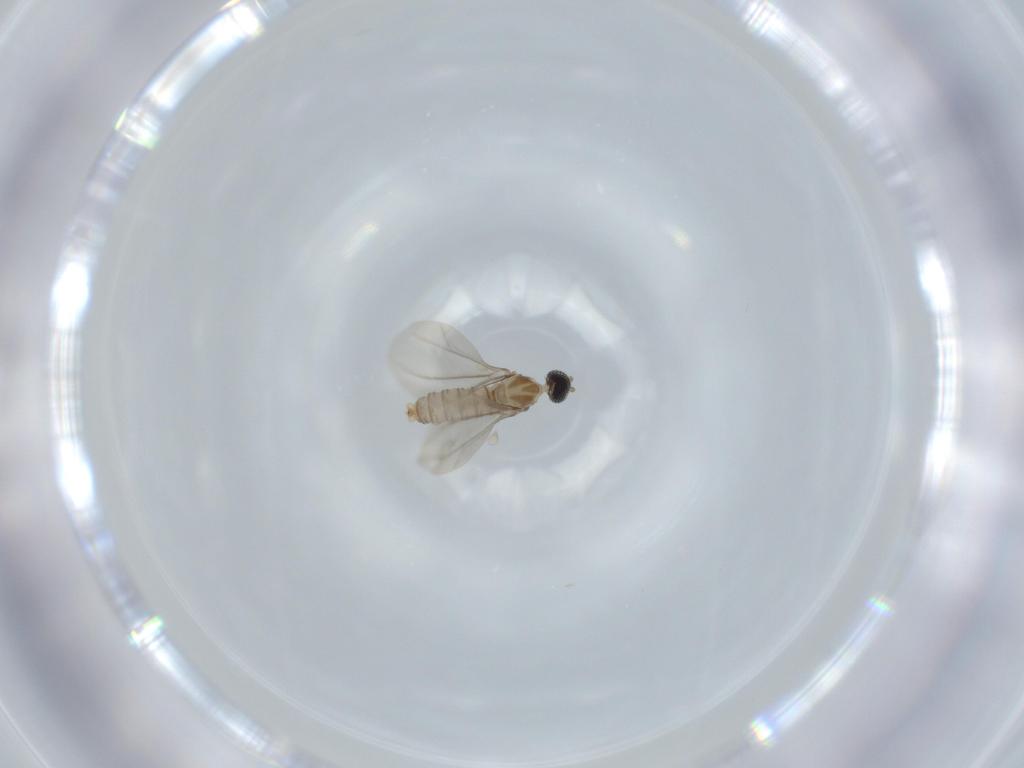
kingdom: Animalia
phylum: Arthropoda
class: Insecta
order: Diptera
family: Cecidomyiidae
